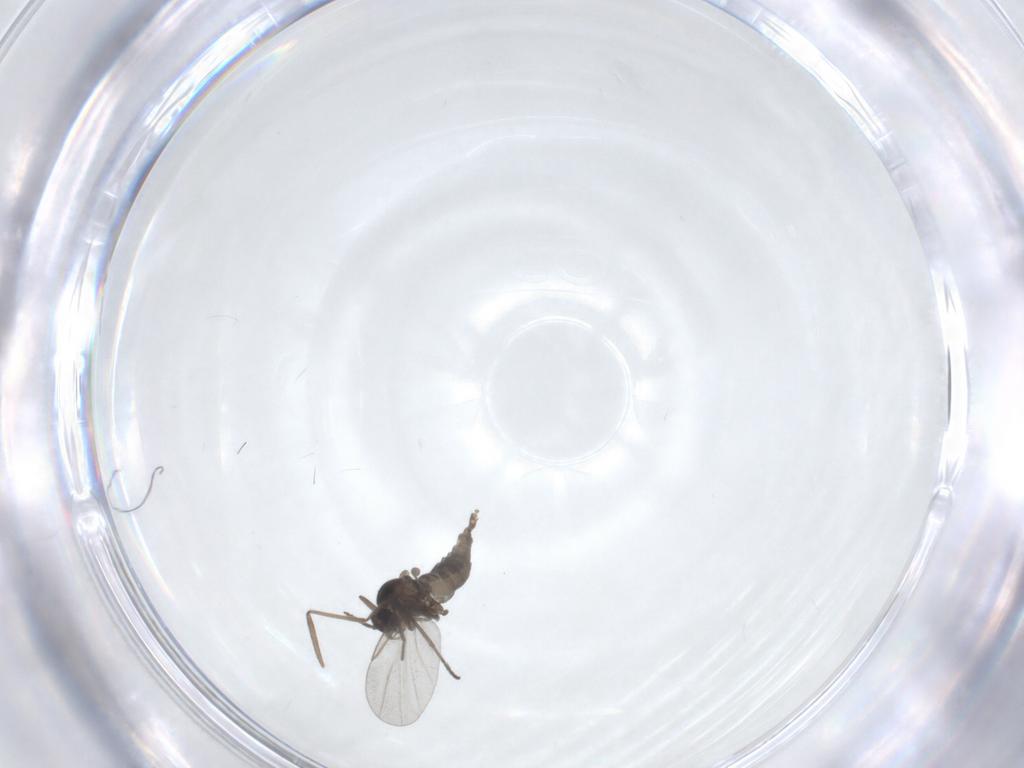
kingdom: Animalia
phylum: Arthropoda
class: Insecta
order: Diptera
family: Cecidomyiidae
